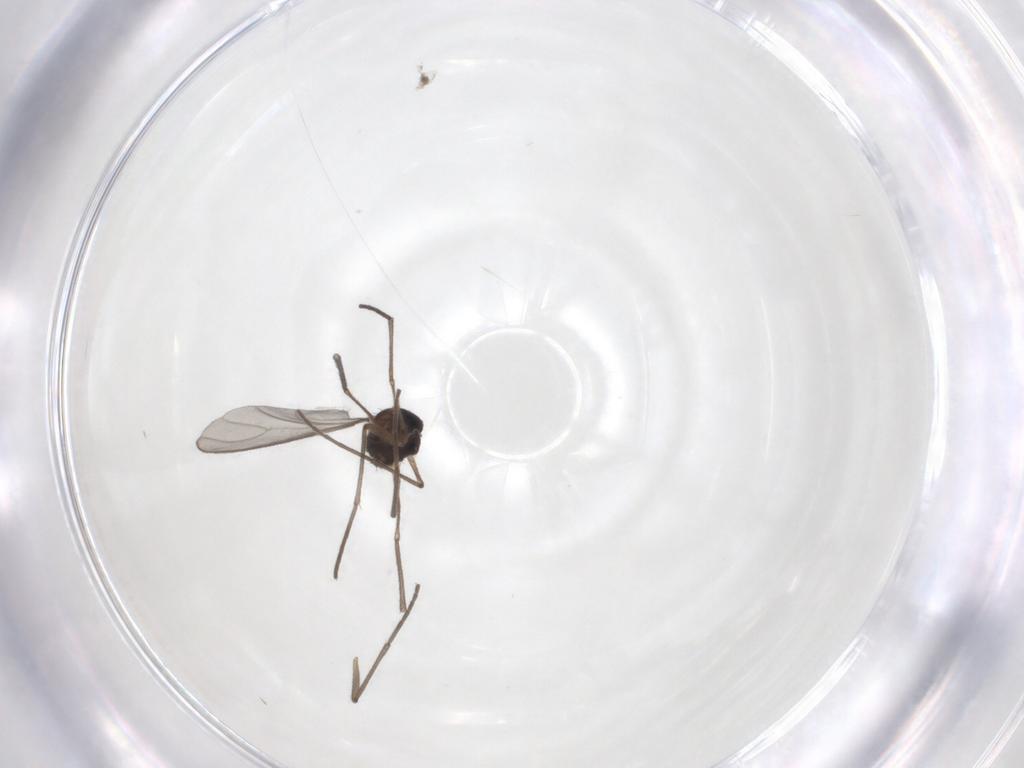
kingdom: Animalia
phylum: Arthropoda
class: Insecta
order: Diptera
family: Sciaridae
